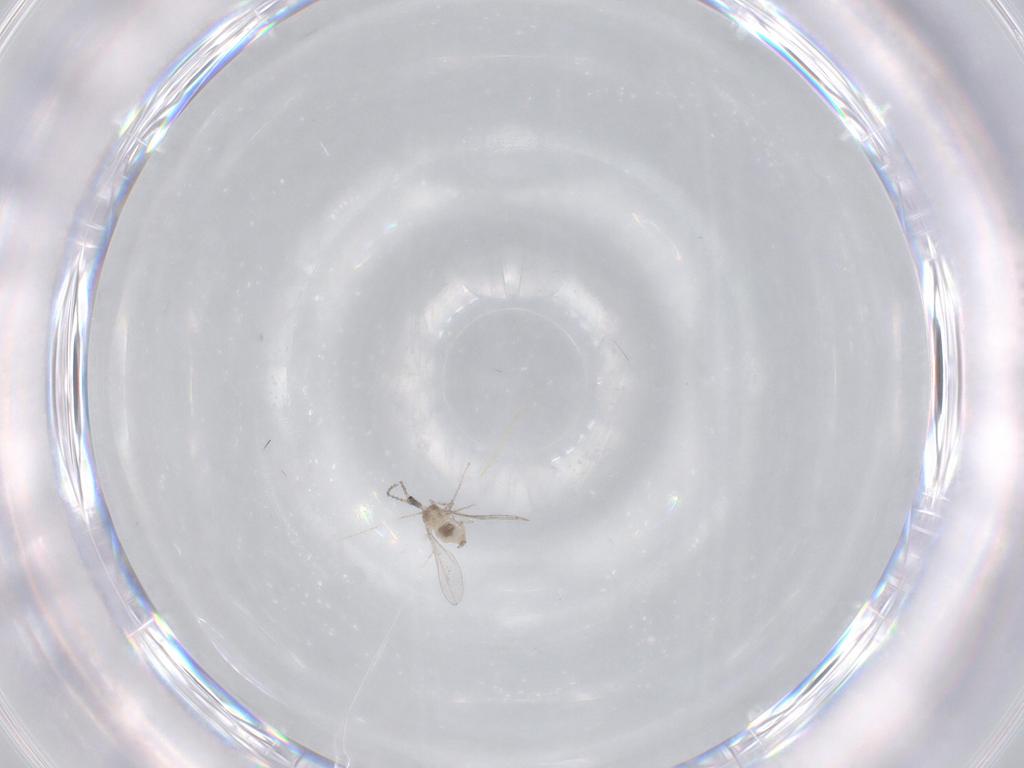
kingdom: Animalia
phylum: Arthropoda
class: Insecta
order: Diptera
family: Cecidomyiidae
